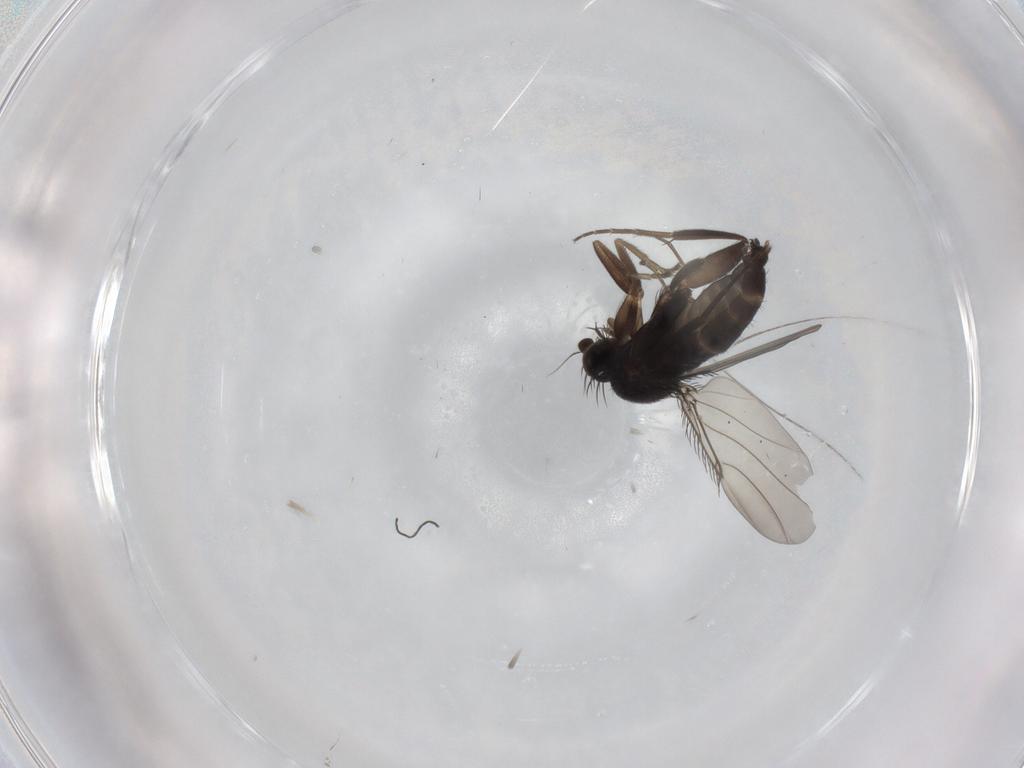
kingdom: Animalia
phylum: Arthropoda
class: Insecta
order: Diptera
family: Phoridae
